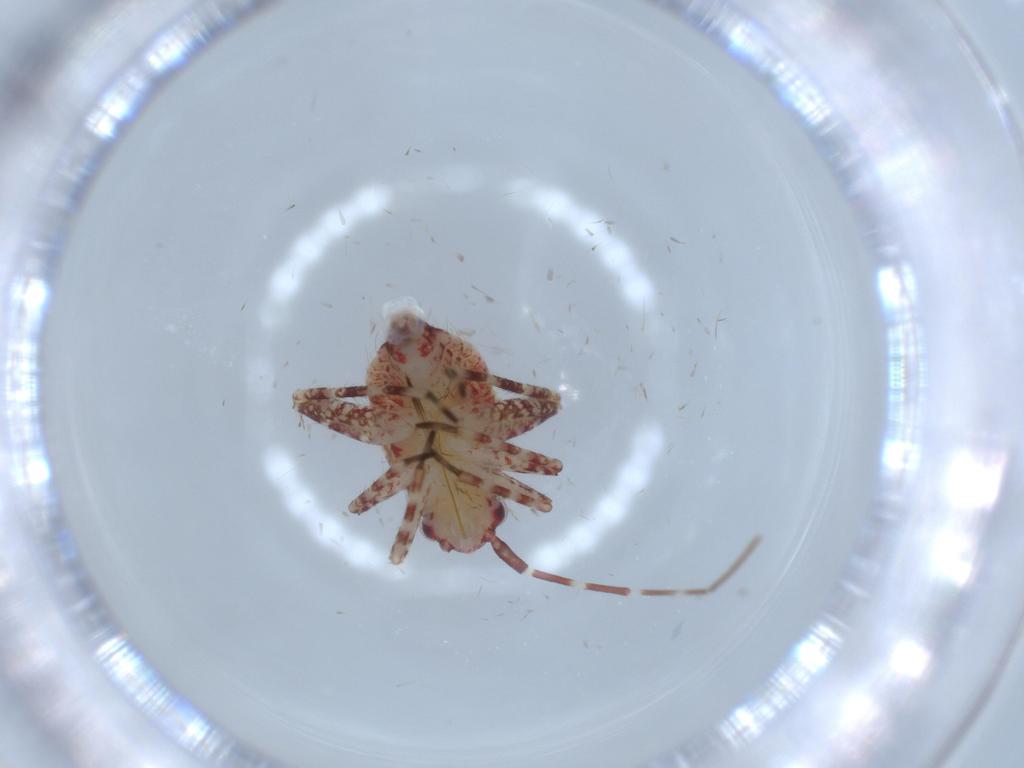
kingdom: Animalia
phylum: Arthropoda
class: Insecta
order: Hemiptera
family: Miridae
